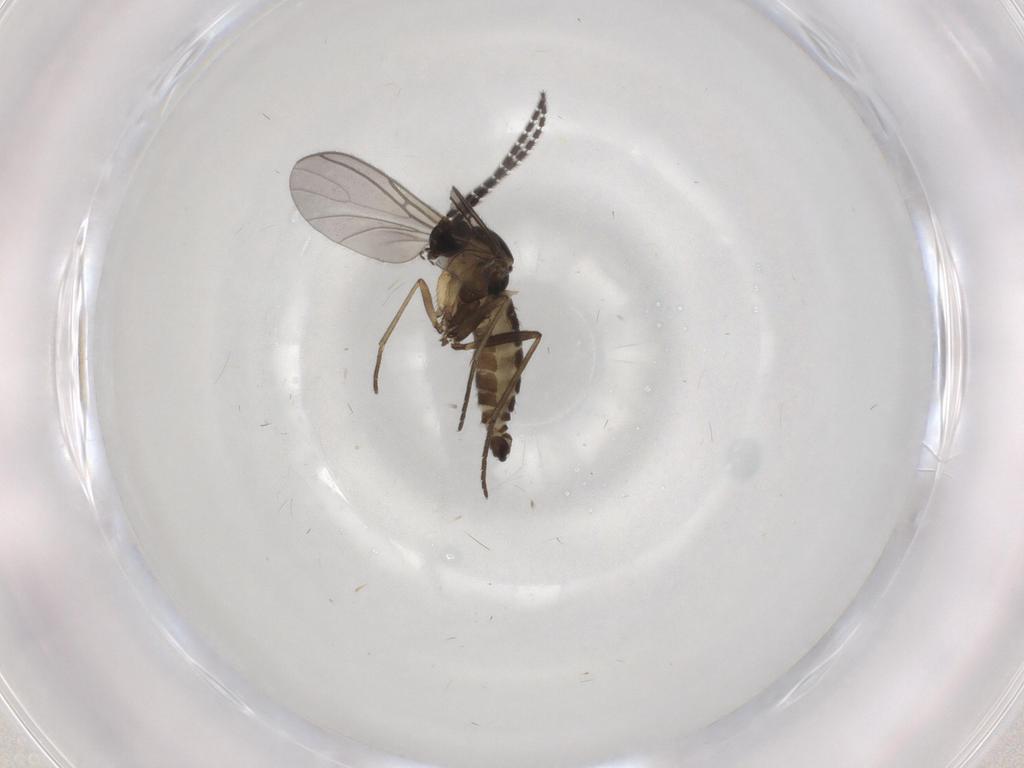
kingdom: Animalia
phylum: Arthropoda
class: Insecta
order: Diptera
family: Sciaridae
